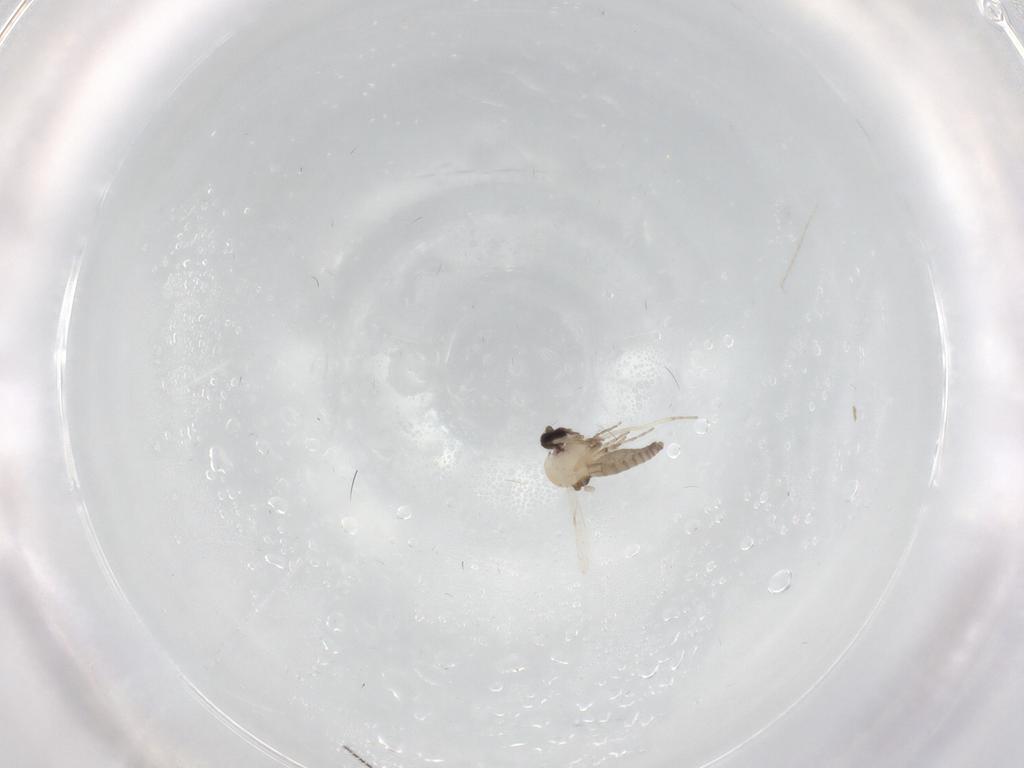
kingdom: Animalia
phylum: Arthropoda
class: Insecta
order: Diptera
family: Ceratopogonidae
